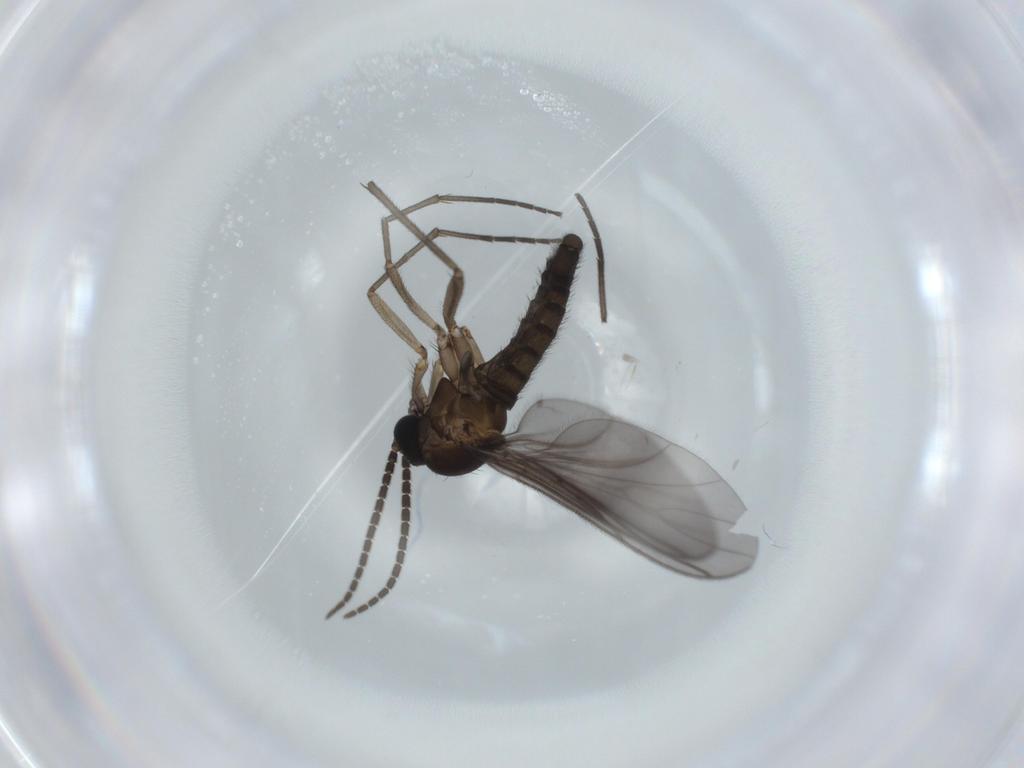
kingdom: Animalia
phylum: Arthropoda
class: Insecta
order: Diptera
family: Sciaridae
